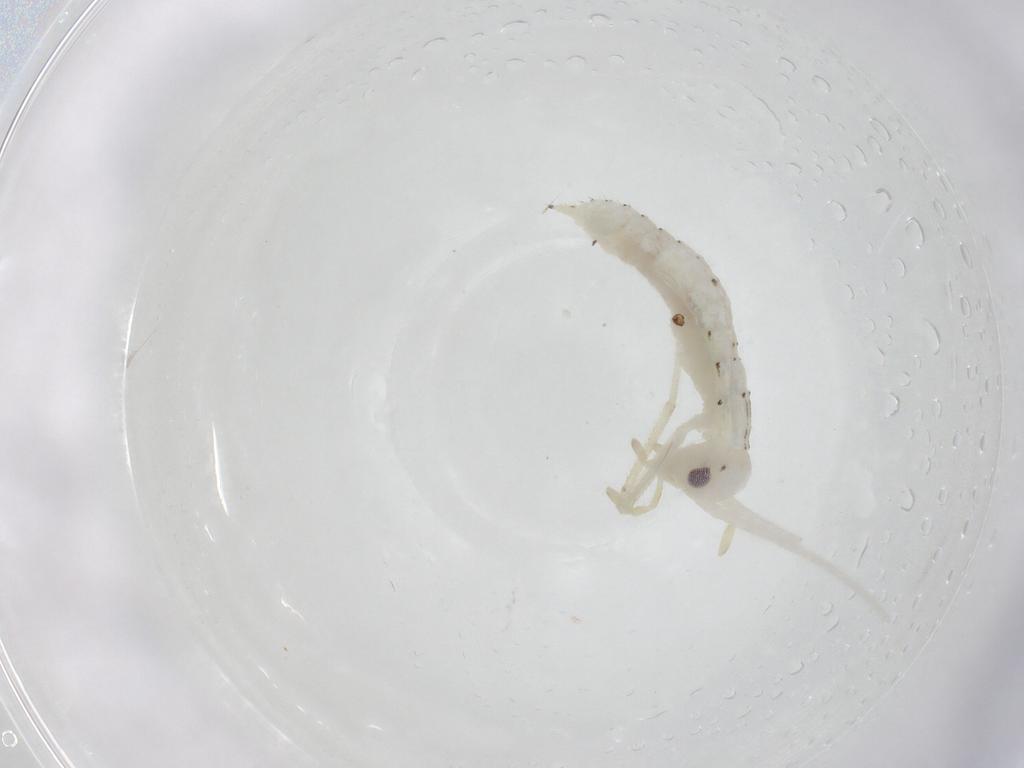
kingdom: Animalia
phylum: Arthropoda
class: Insecta
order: Orthoptera
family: Oecanthidae
